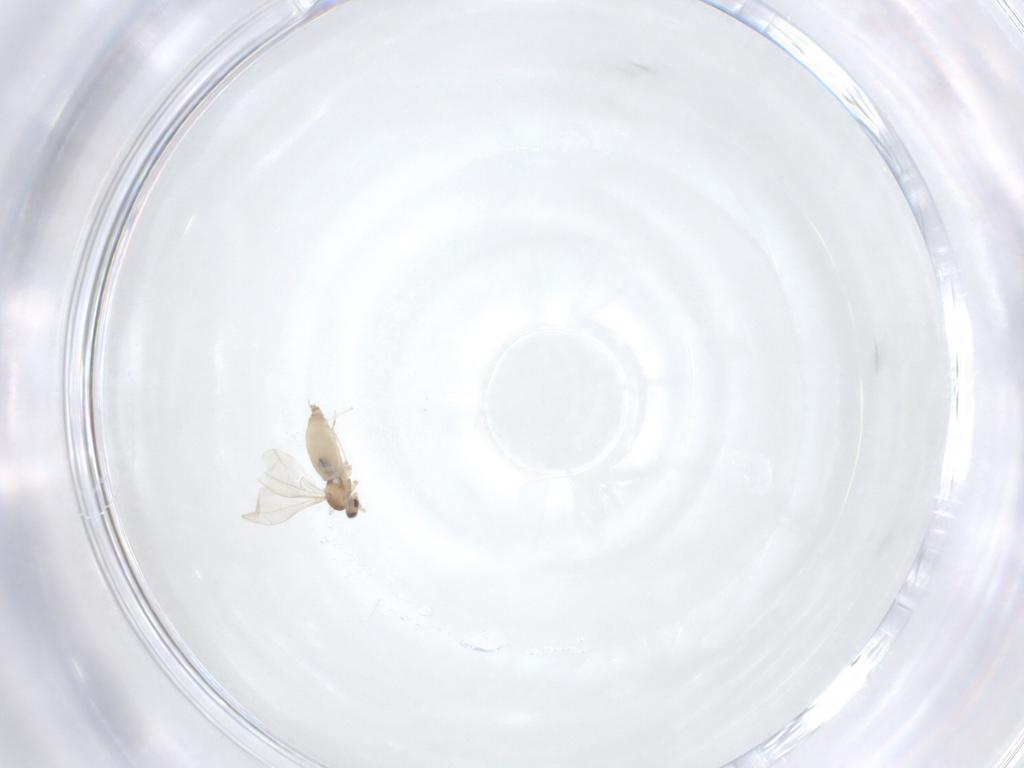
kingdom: Animalia
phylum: Arthropoda
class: Insecta
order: Diptera
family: Cecidomyiidae
